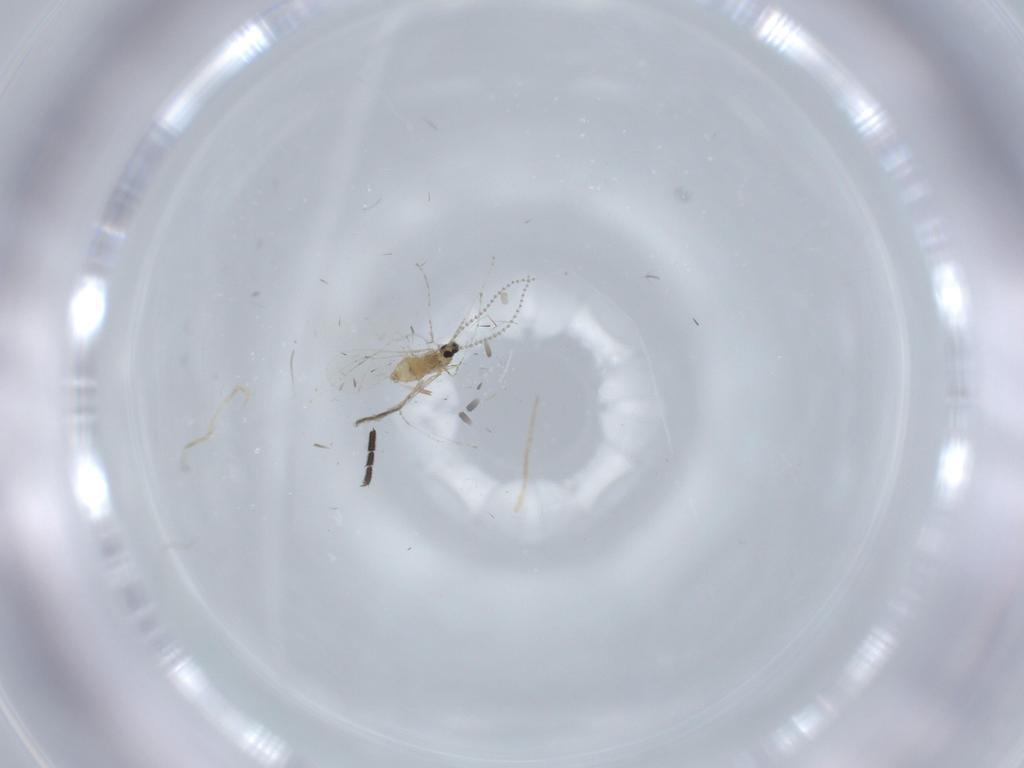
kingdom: Animalia
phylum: Arthropoda
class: Insecta
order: Diptera
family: Cecidomyiidae
